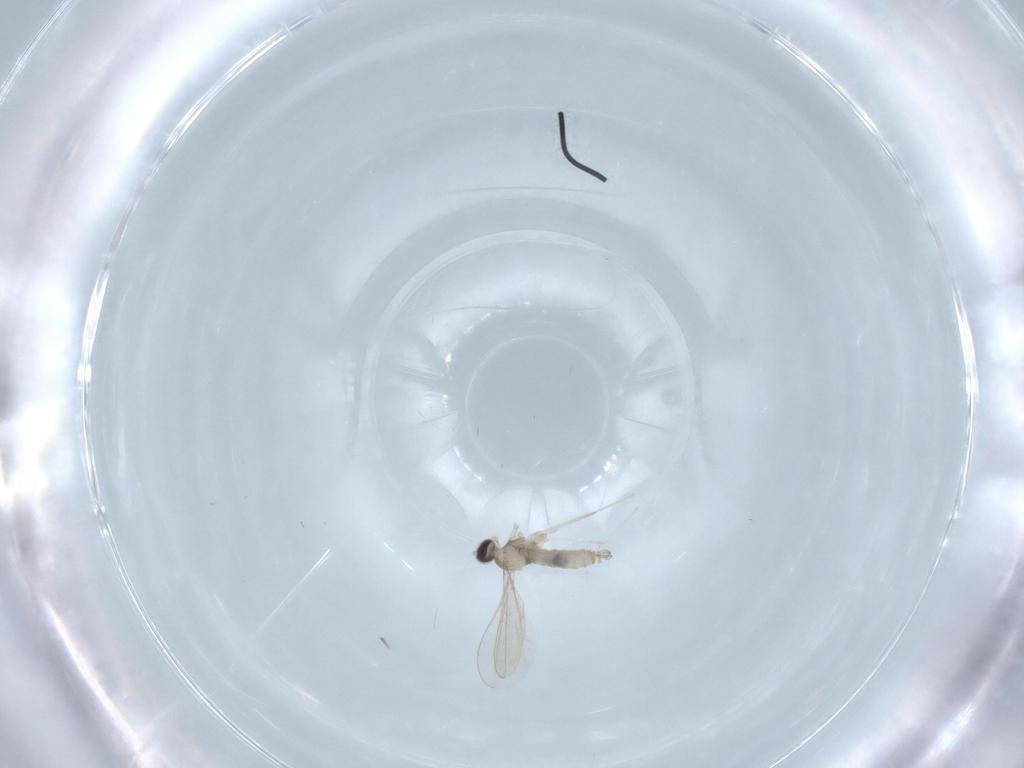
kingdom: Animalia
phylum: Arthropoda
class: Insecta
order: Diptera
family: Cecidomyiidae
